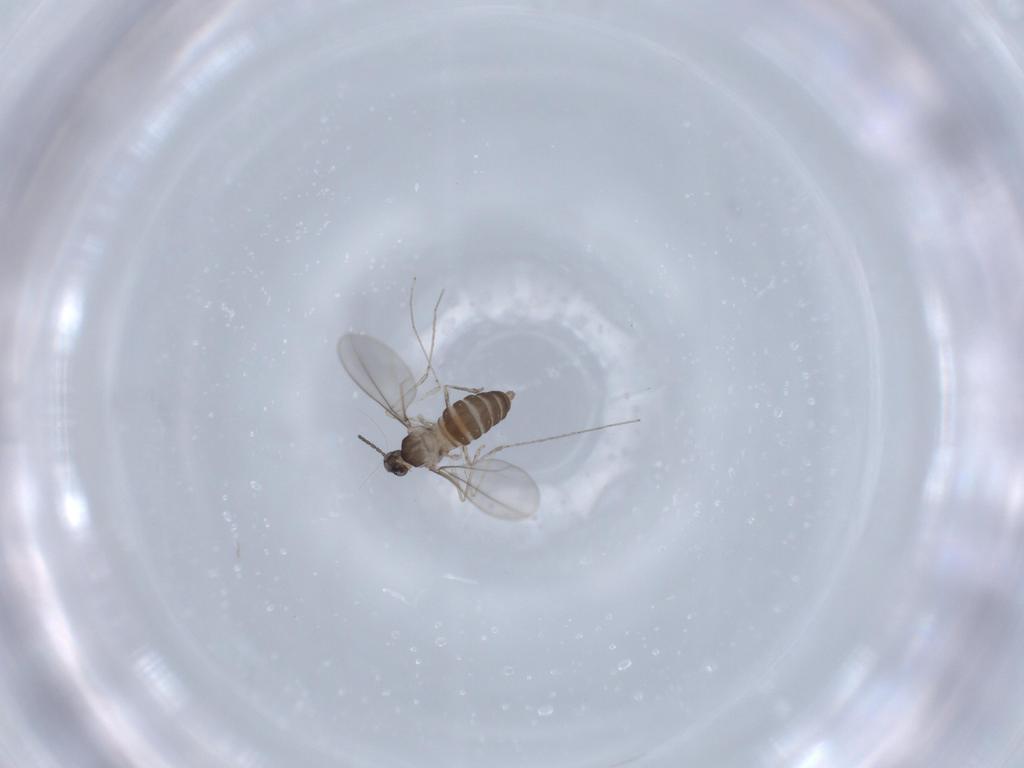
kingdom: Animalia
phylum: Arthropoda
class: Insecta
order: Diptera
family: Cecidomyiidae
